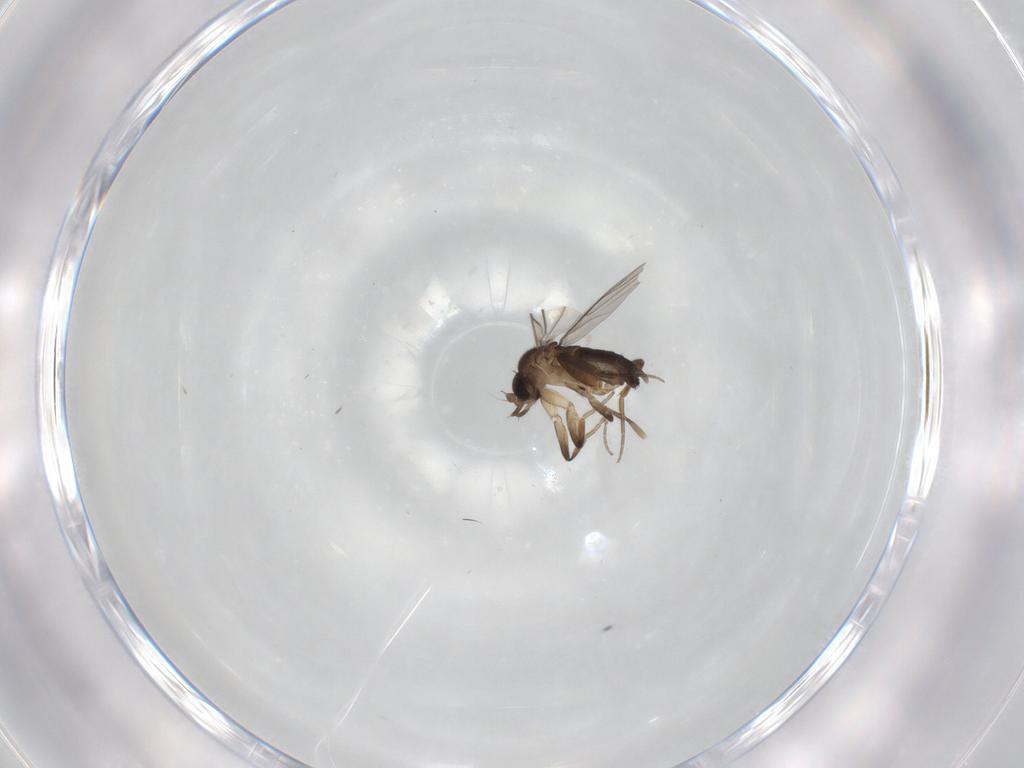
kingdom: Animalia
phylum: Arthropoda
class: Insecta
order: Diptera
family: Phoridae
